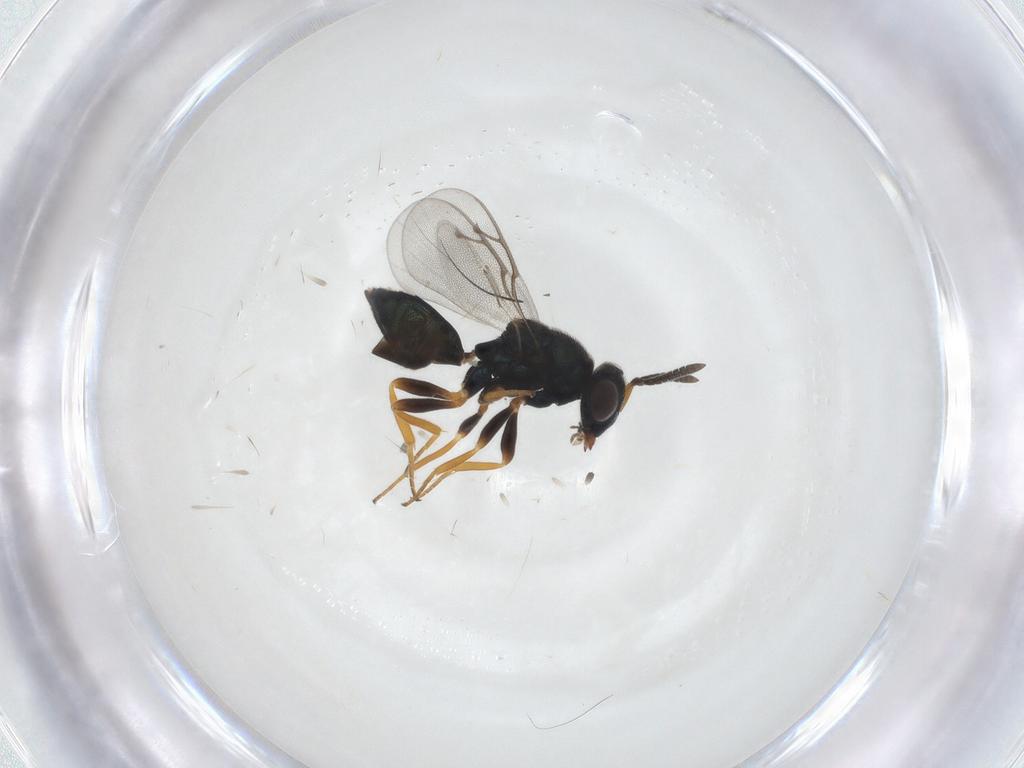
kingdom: Animalia
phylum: Arthropoda
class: Insecta
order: Hymenoptera
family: Pteromalidae
